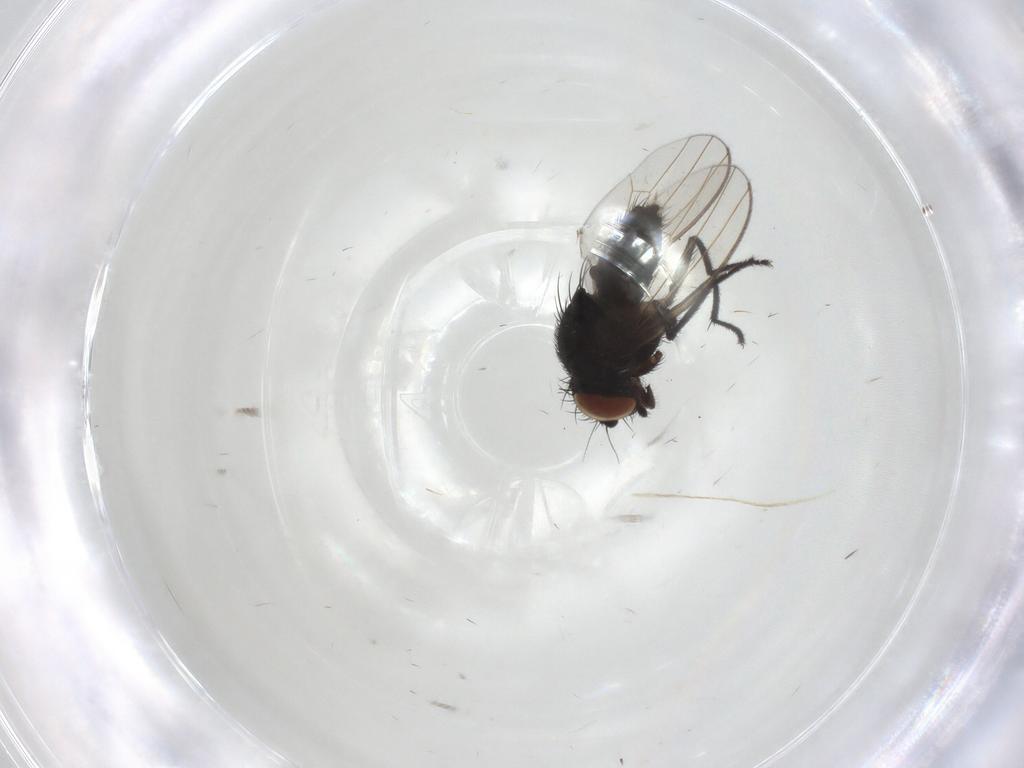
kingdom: Animalia
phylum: Arthropoda
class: Insecta
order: Diptera
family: Milichiidae
